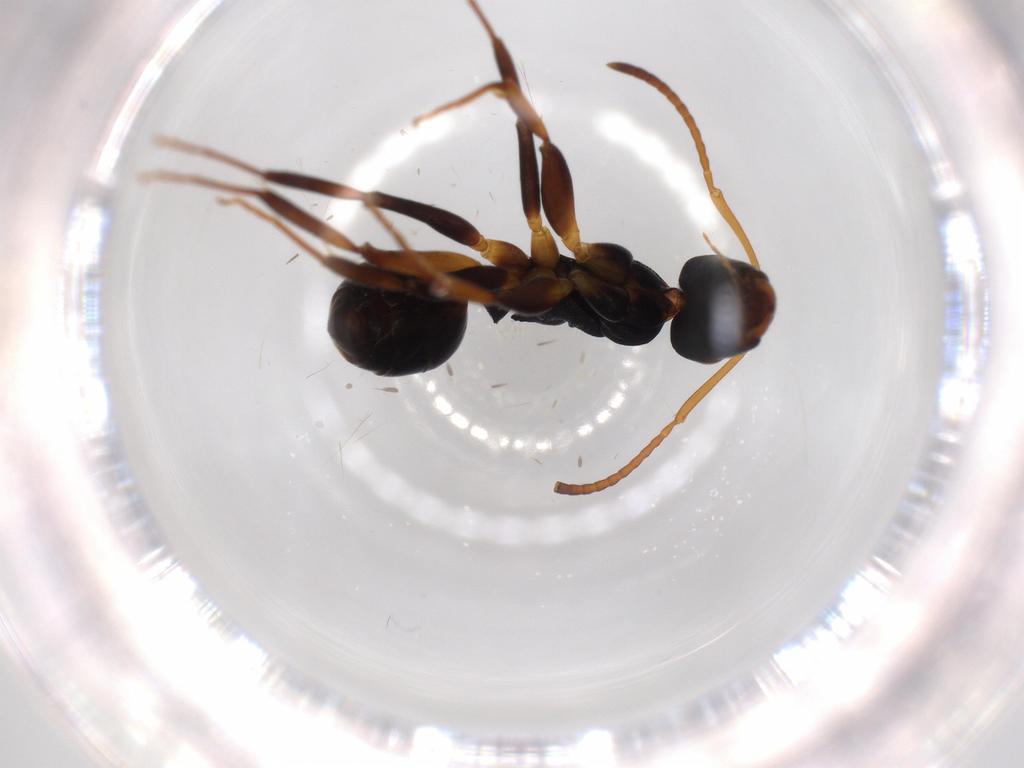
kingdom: Animalia
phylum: Arthropoda
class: Insecta
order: Hymenoptera
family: Formicidae
